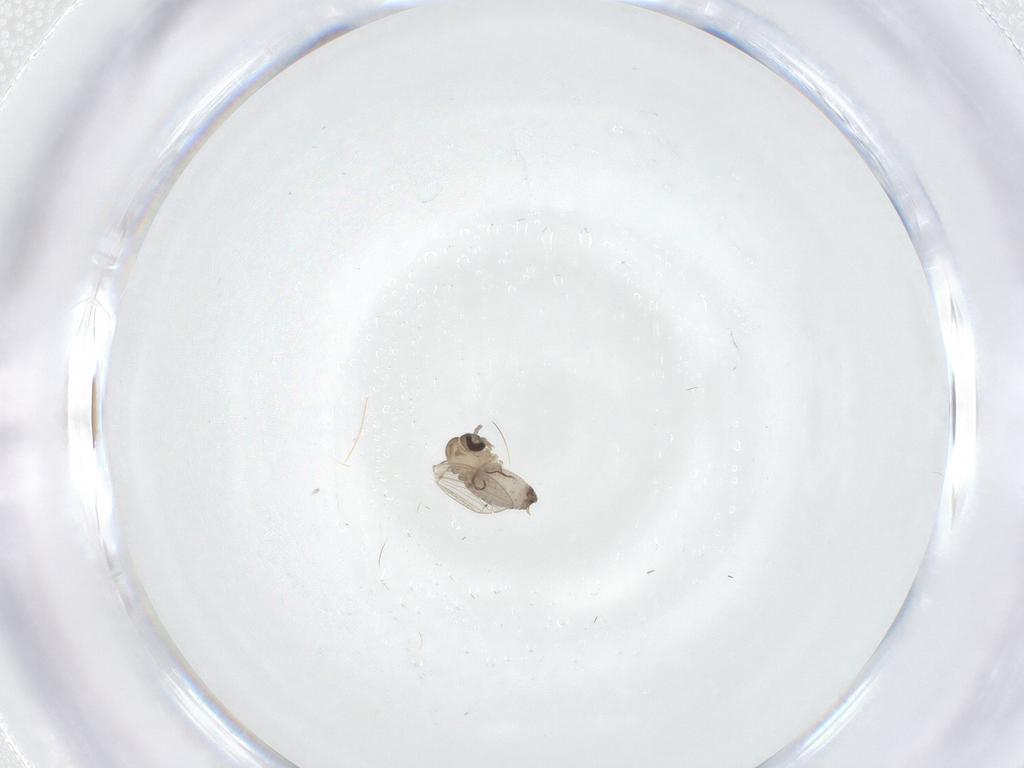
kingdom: Animalia
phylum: Arthropoda
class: Insecta
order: Diptera
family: Psychodidae
